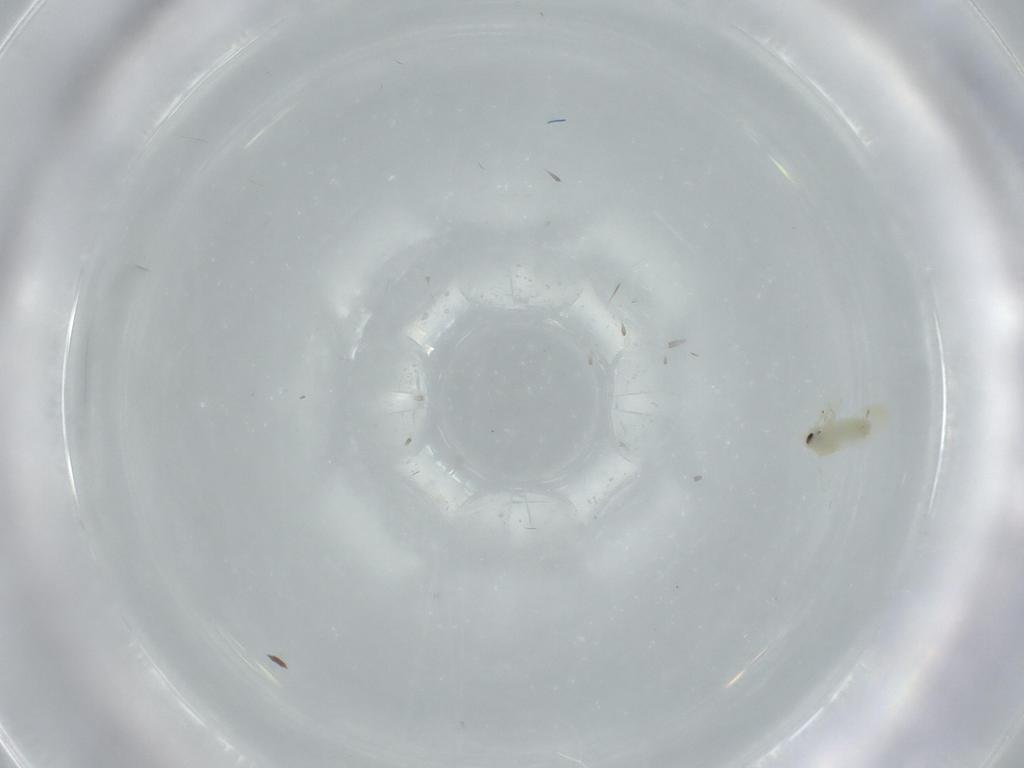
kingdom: Animalia
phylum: Arthropoda
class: Insecta
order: Hemiptera
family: Aleyrodidae
